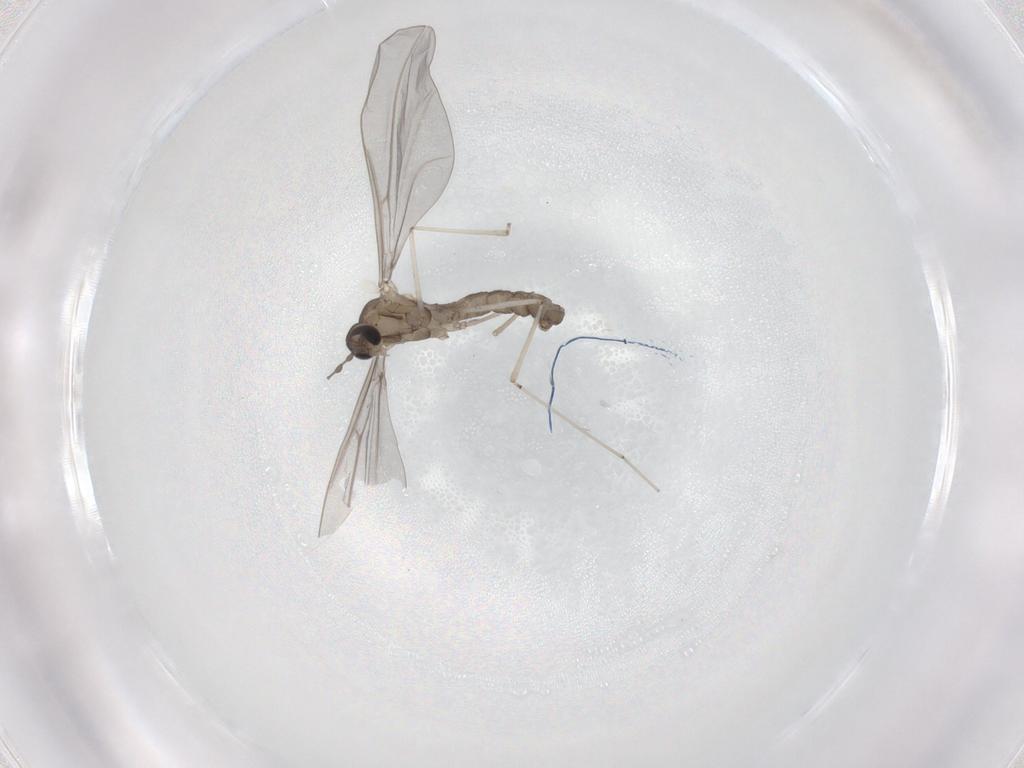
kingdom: Animalia
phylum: Arthropoda
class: Insecta
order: Diptera
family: Cecidomyiidae
